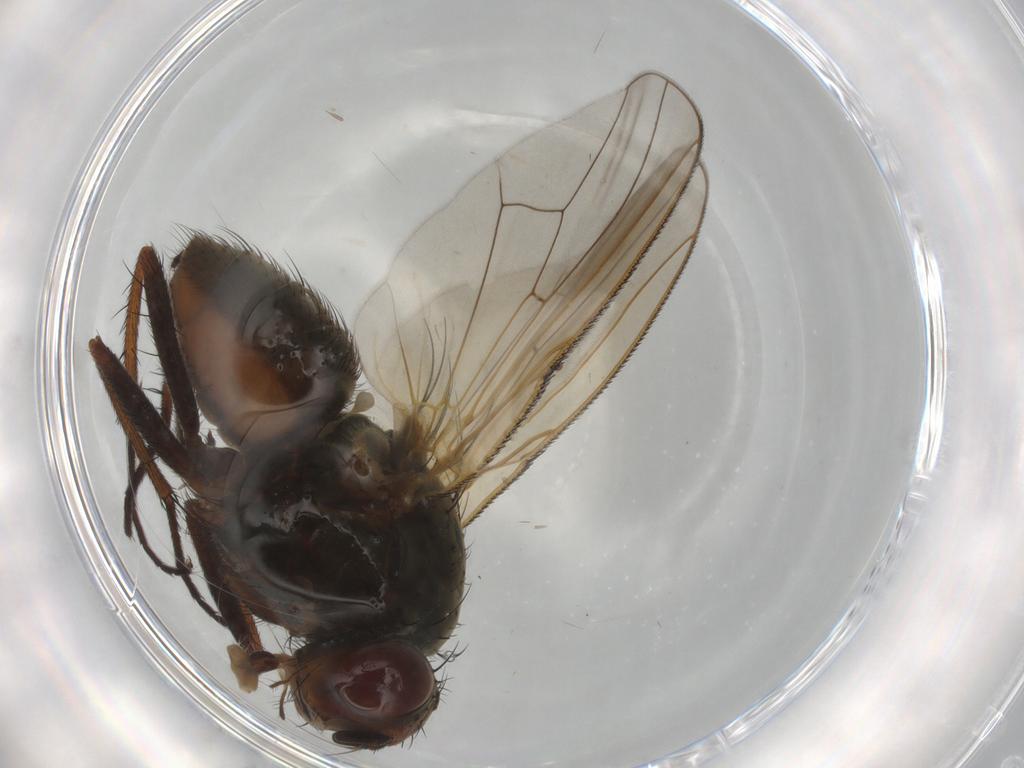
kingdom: Animalia
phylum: Arthropoda
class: Insecta
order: Diptera
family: Anthomyiidae
